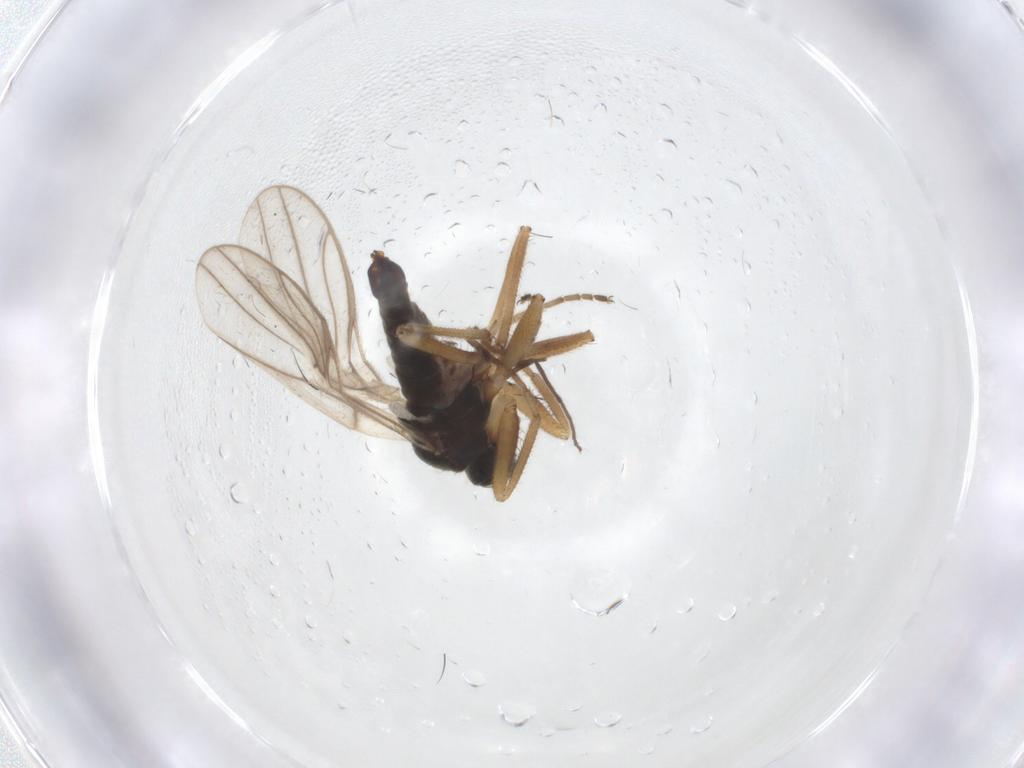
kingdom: Animalia
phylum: Arthropoda
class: Insecta
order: Diptera
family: Hybotidae
